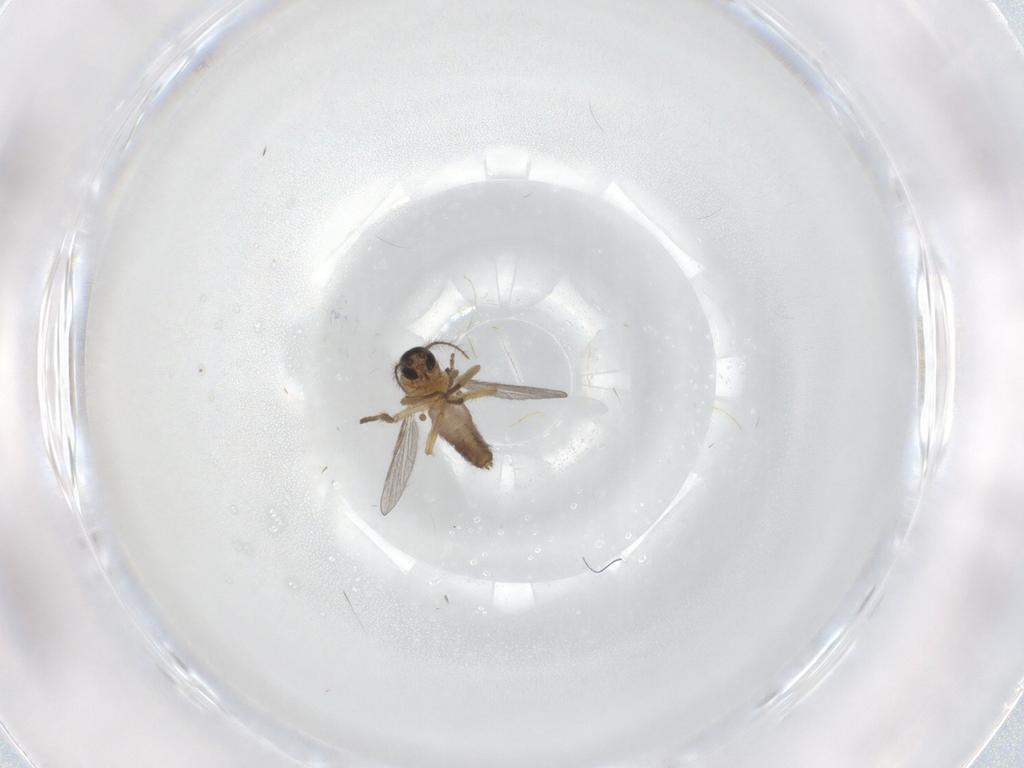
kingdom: Animalia
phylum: Arthropoda
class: Insecta
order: Diptera
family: Ceratopogonidae
